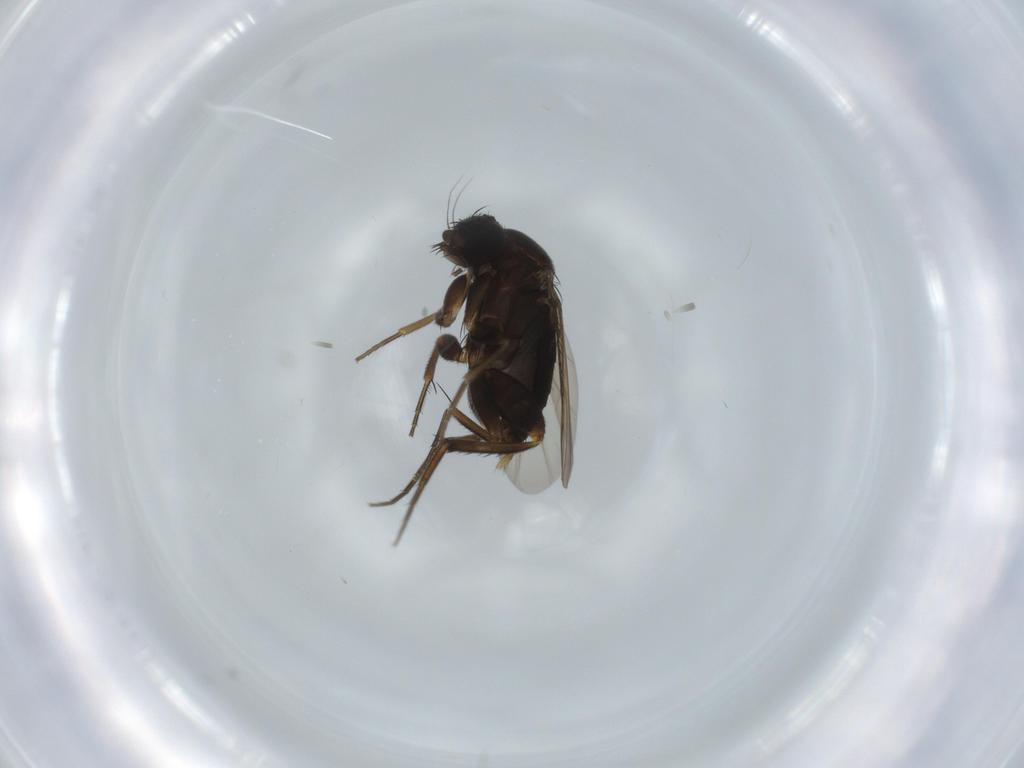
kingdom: Animalia
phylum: Arthropoda
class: Insecta
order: Diptera
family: Phoridae
